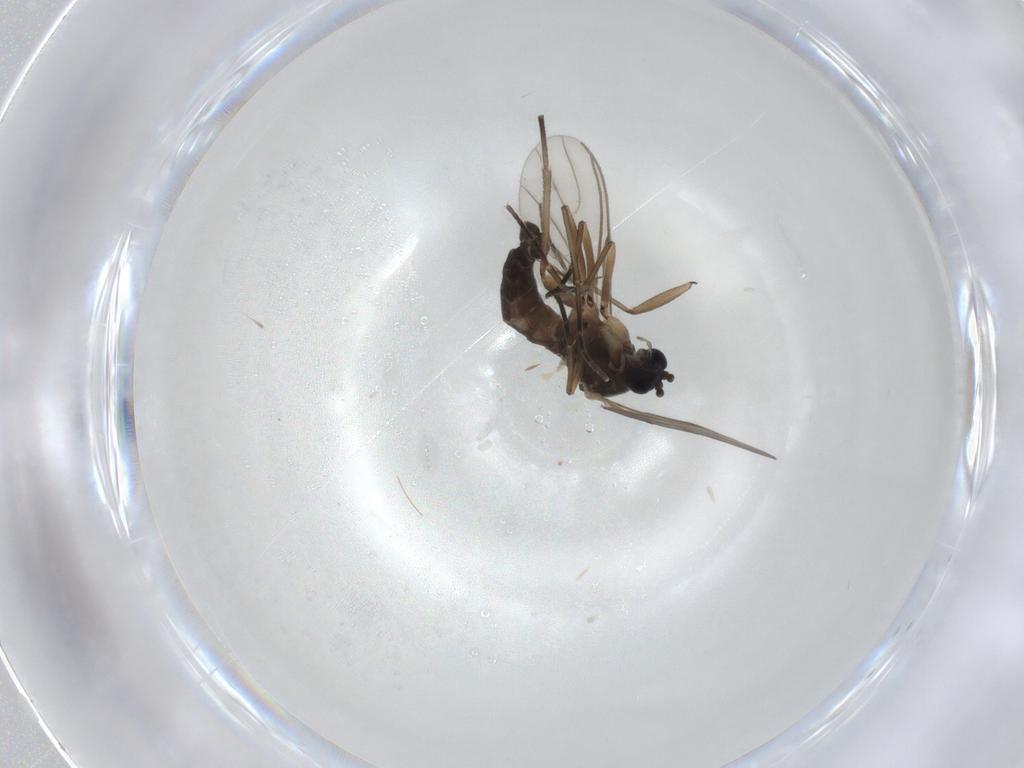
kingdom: Animalia
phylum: Arthropoda
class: Insecta
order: Diptera
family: Sciaridae
